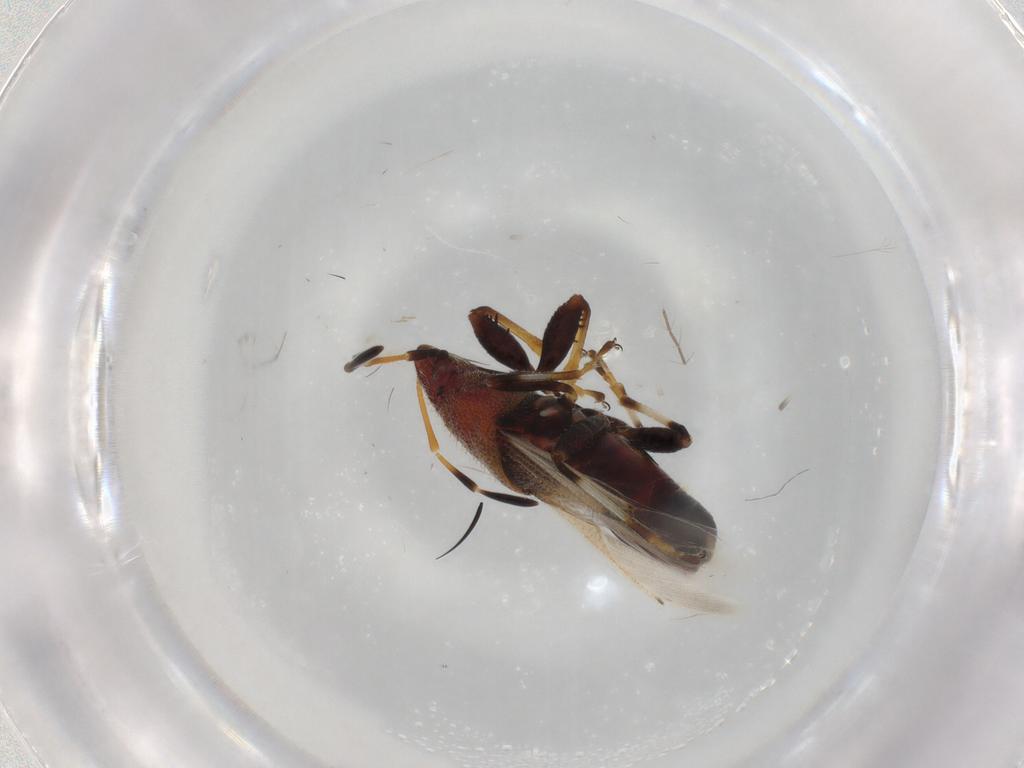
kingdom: Animalia
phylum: Arthropoda
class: Insecta
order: Hemiptera
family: Oxycarenidae
